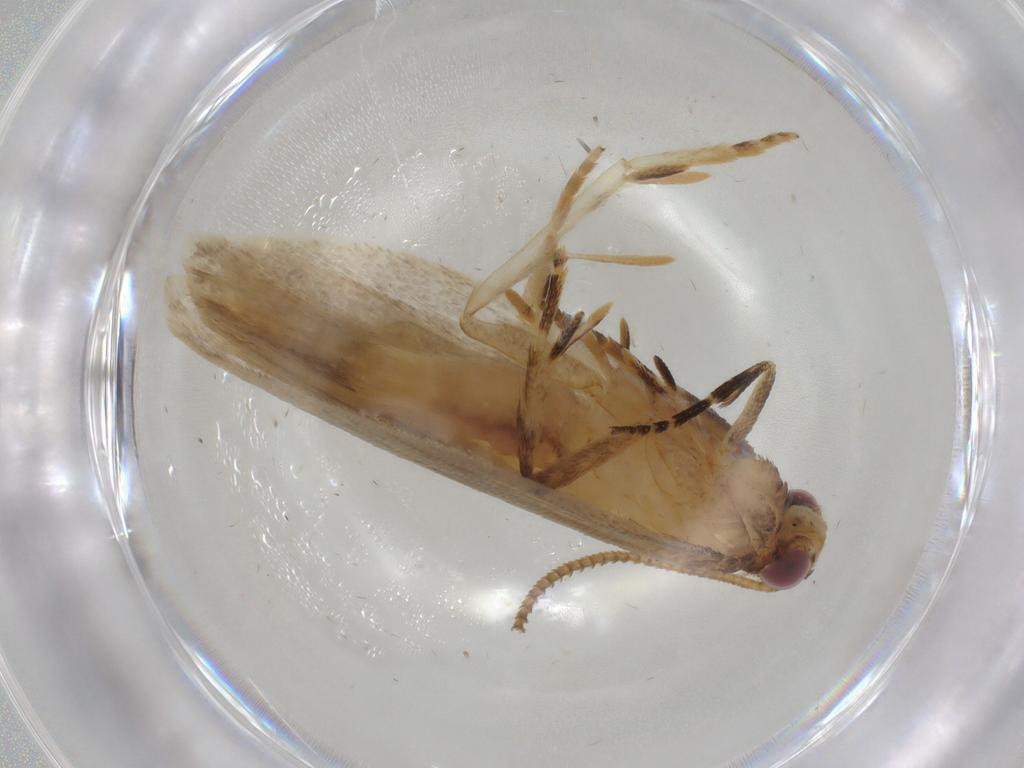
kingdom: Animalia
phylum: Arthropoda
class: Insecta
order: Lepidoptera
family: Cosmopterigidae
